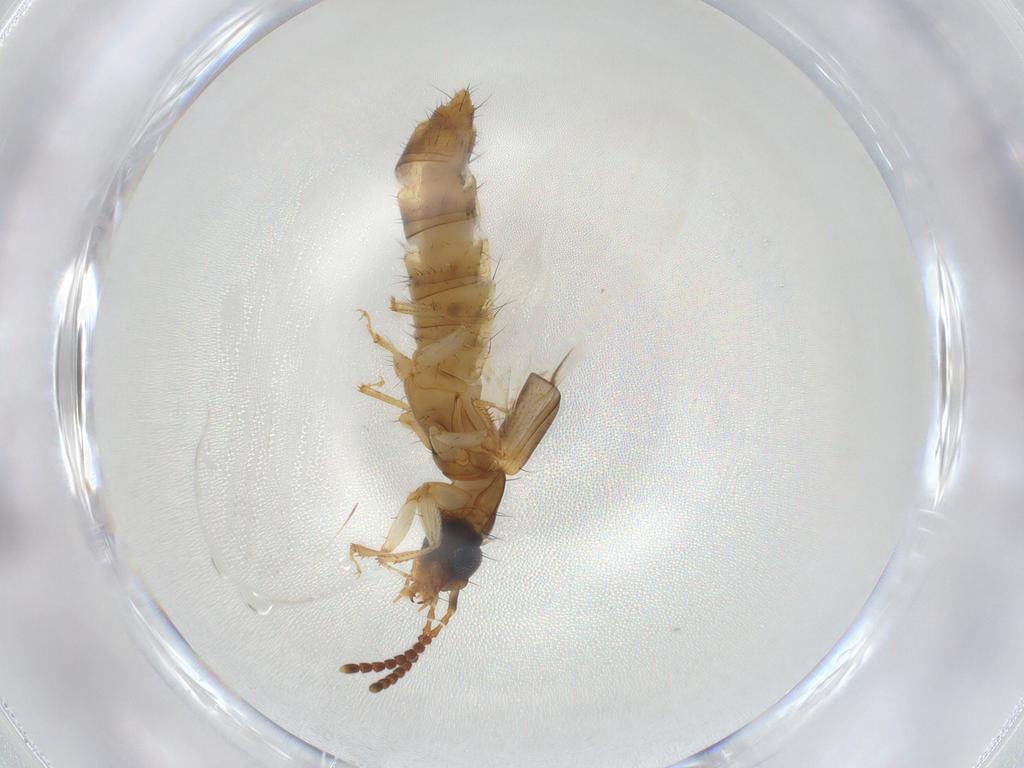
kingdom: Animalia
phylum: Arthropoda
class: Insecta
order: Coleoptera
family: Staphylinidae
